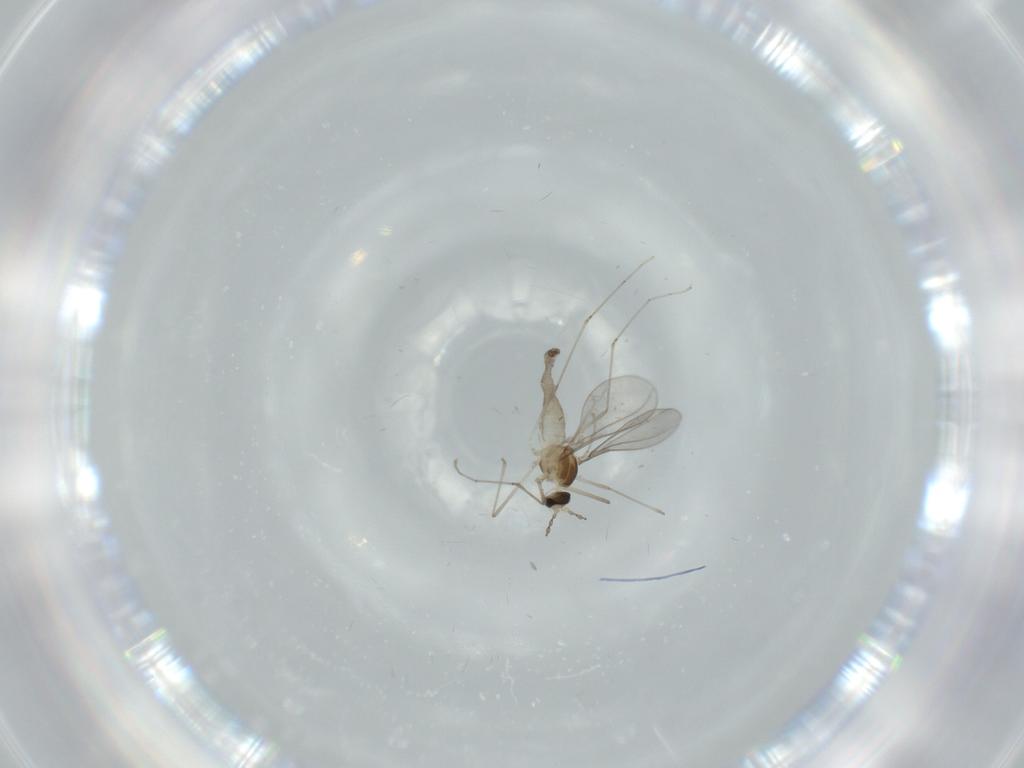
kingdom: Animalia
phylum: Arthropoda
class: Insecta
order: Diptera
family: Cecidomyiidae
